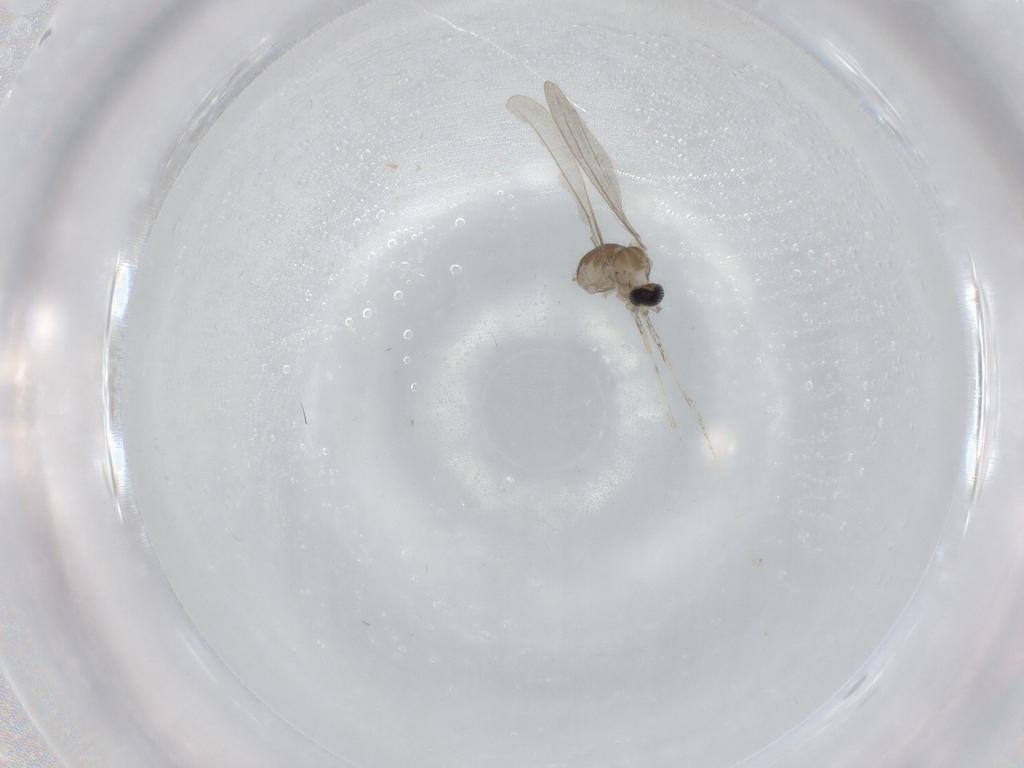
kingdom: Animalia
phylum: Arthropoda
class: Insecta
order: Diptera
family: Cecidomyiidae
